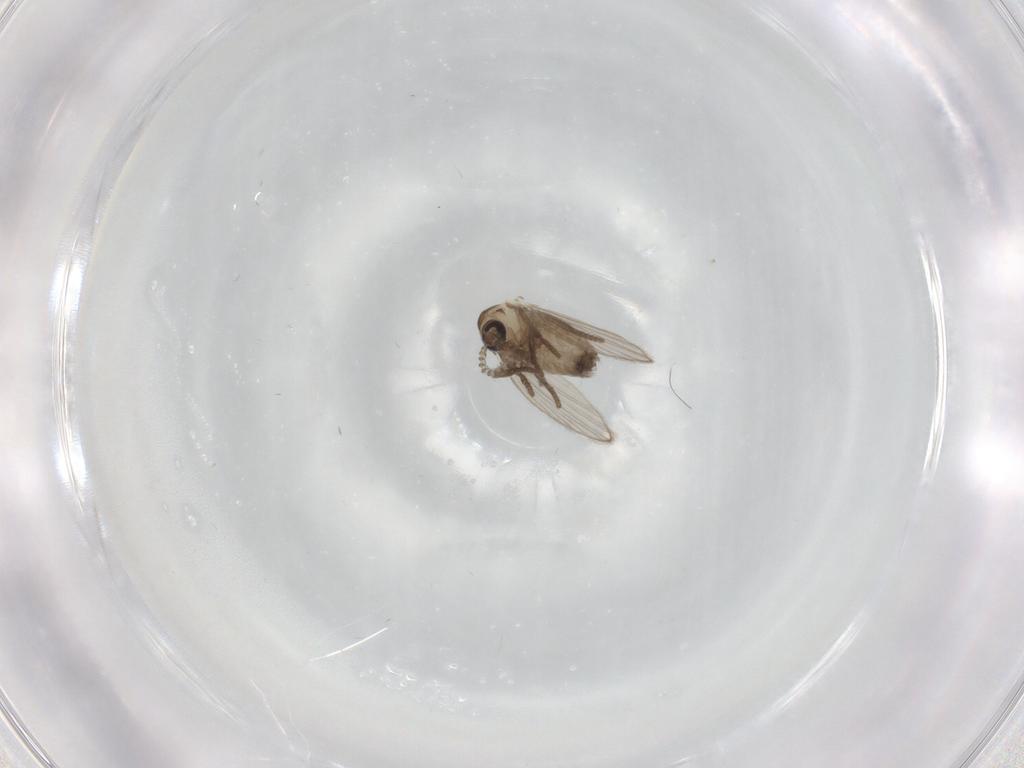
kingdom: Animalia
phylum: Arthropoda
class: Insecta
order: Diptera
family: Psychodidae
